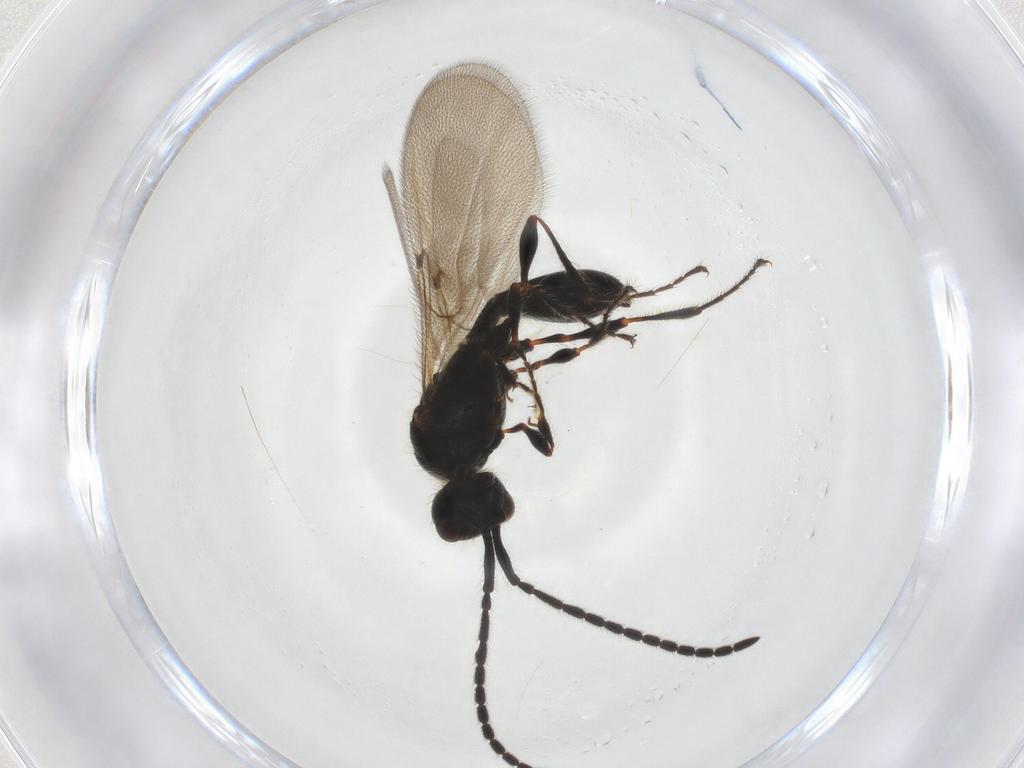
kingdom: Animalia
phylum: Arthropoda
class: Insecta
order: Hymenoptera
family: Diapriidae
